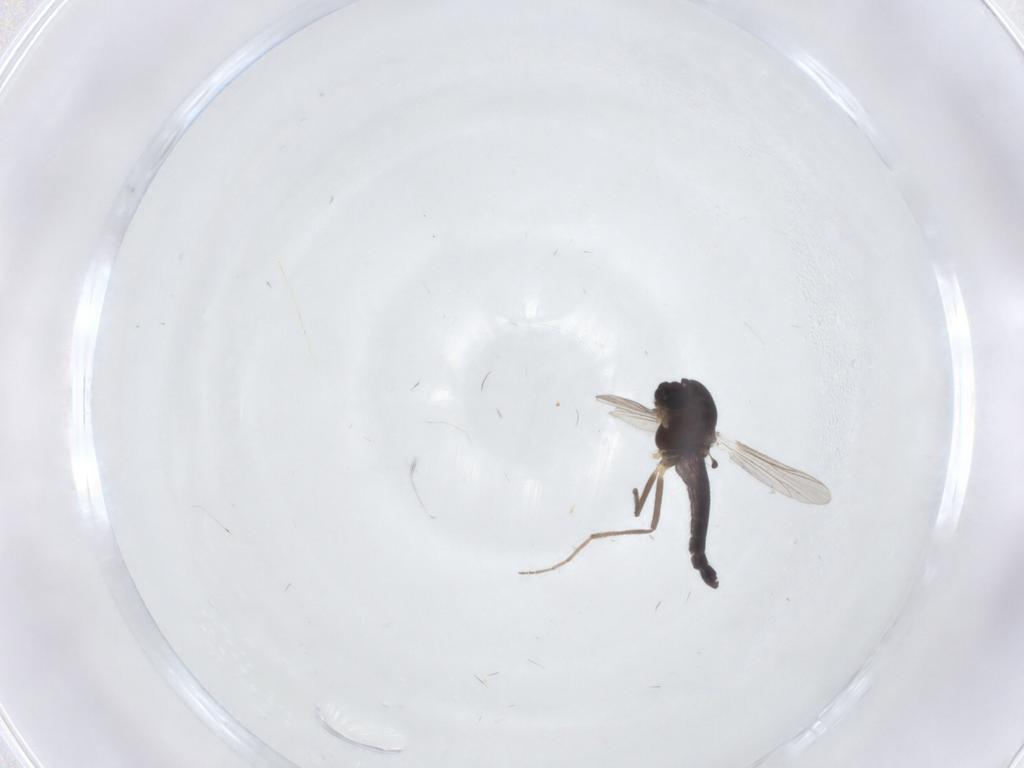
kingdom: Animalia
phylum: Arthropoda
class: Insecta
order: Diptera
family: Chironomidae
